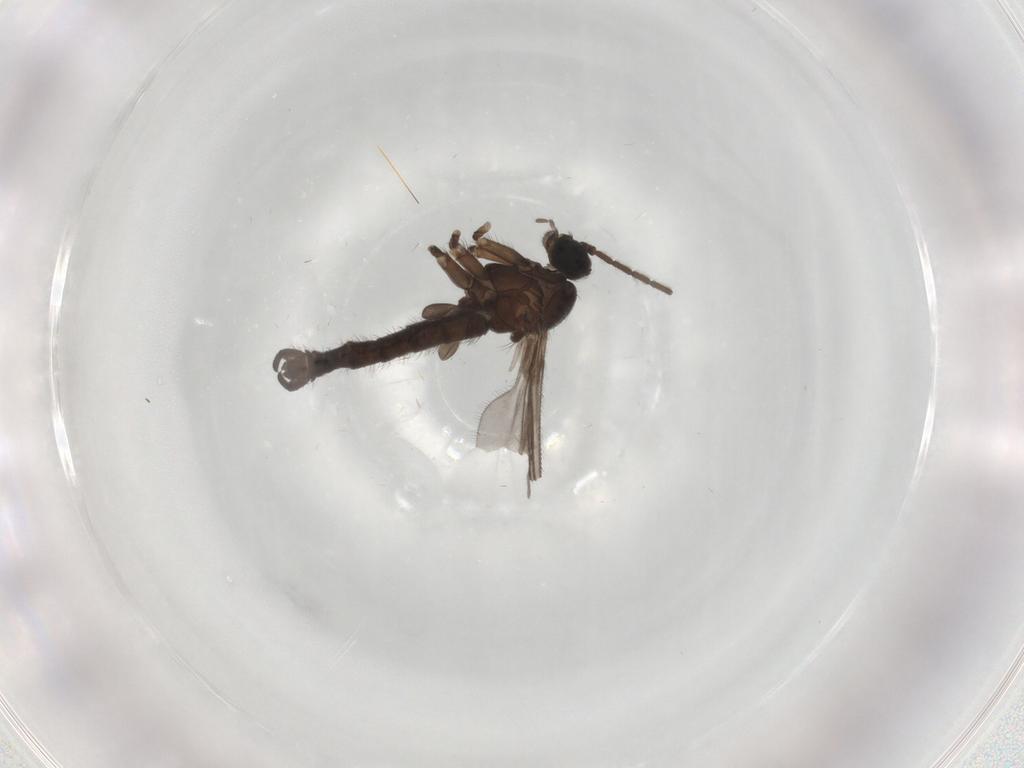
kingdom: Animalia
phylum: Arthropoda
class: Insecta
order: Diptera
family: Sciaridae
